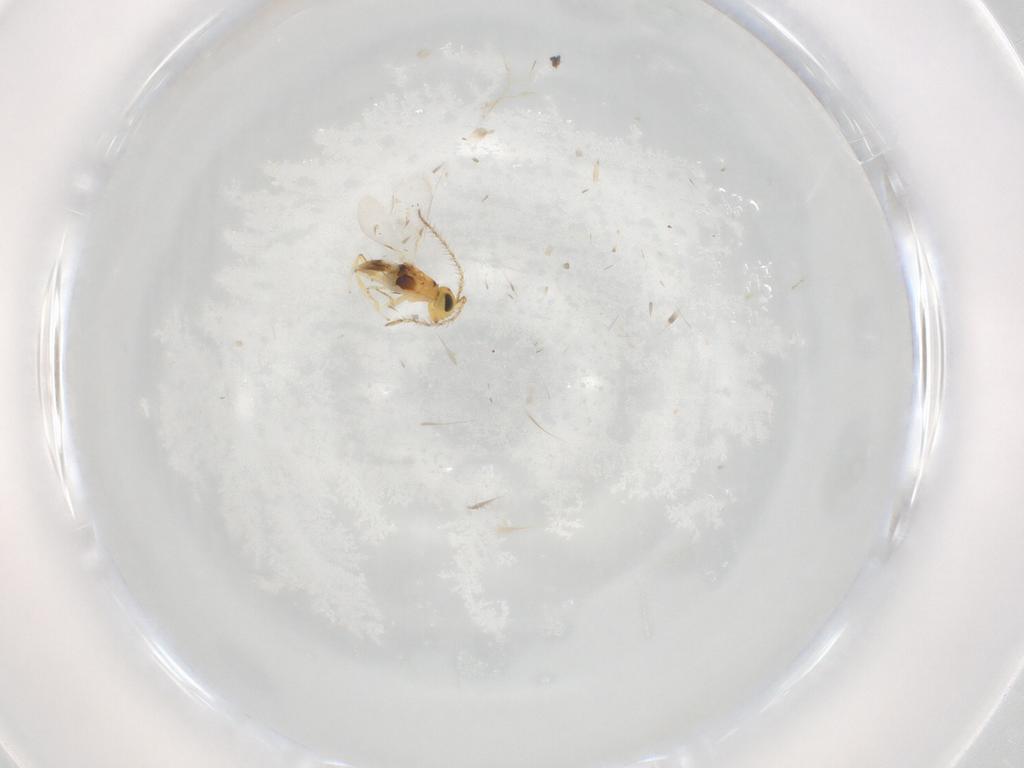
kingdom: Animalia
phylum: Arthropoda
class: Insecta
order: Hymenoptera
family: Encyrtidae
